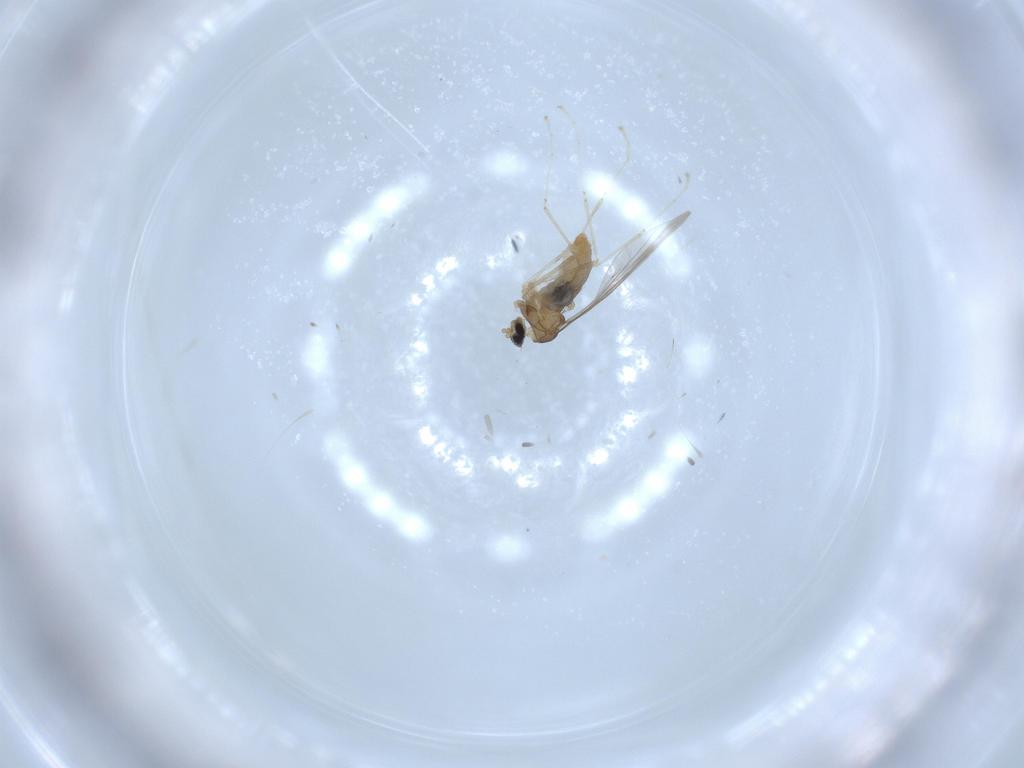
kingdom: Animalia
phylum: Arthropoda
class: Insecta
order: Diptera
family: Cecidomyiidae
